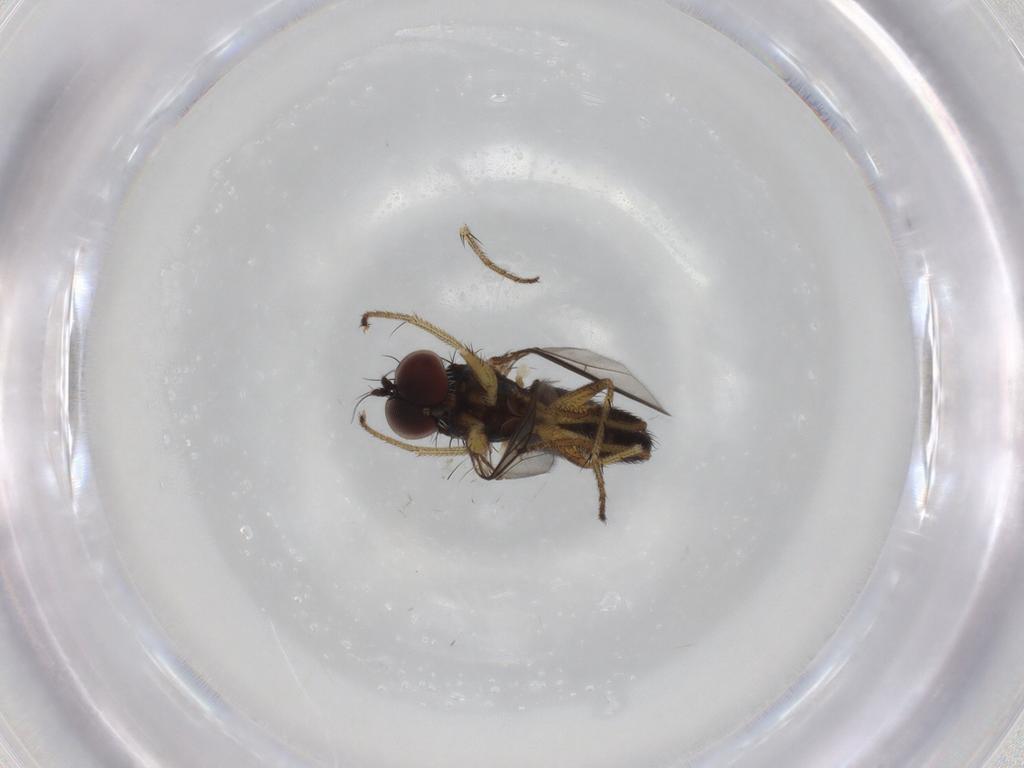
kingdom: Animalia
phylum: Arthropoda
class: Insecta
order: Diptera
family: Dolichopodidae
